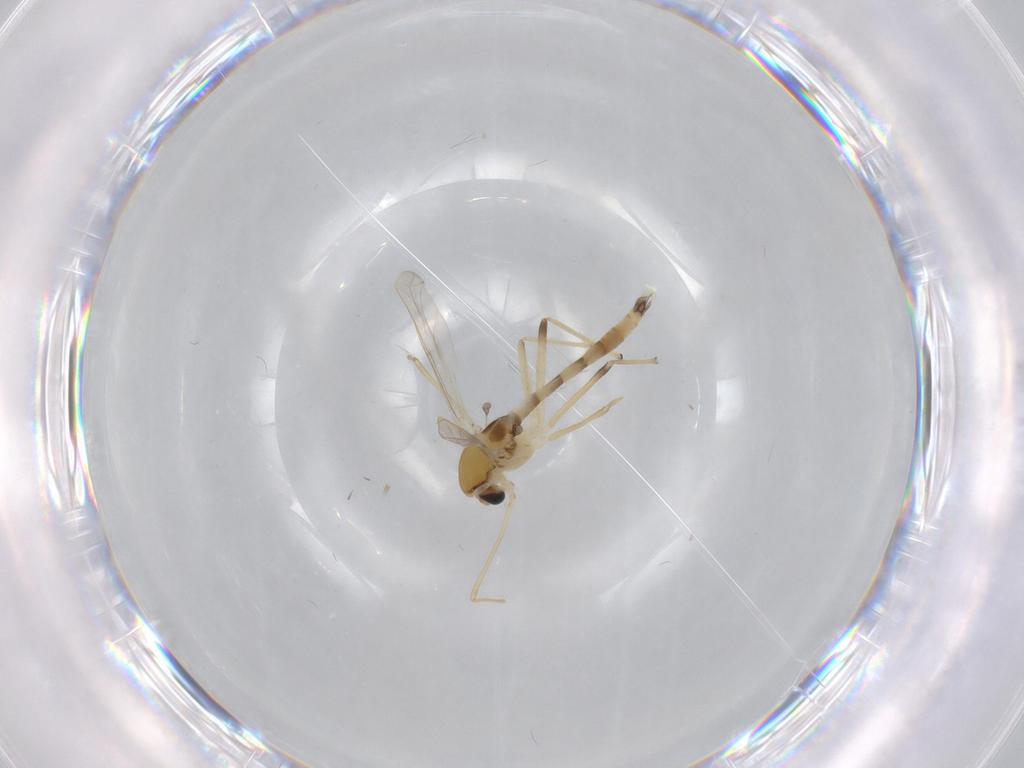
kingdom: Animalia
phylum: Arthropoda
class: Insecta
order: Diptera
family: Chironomidae
